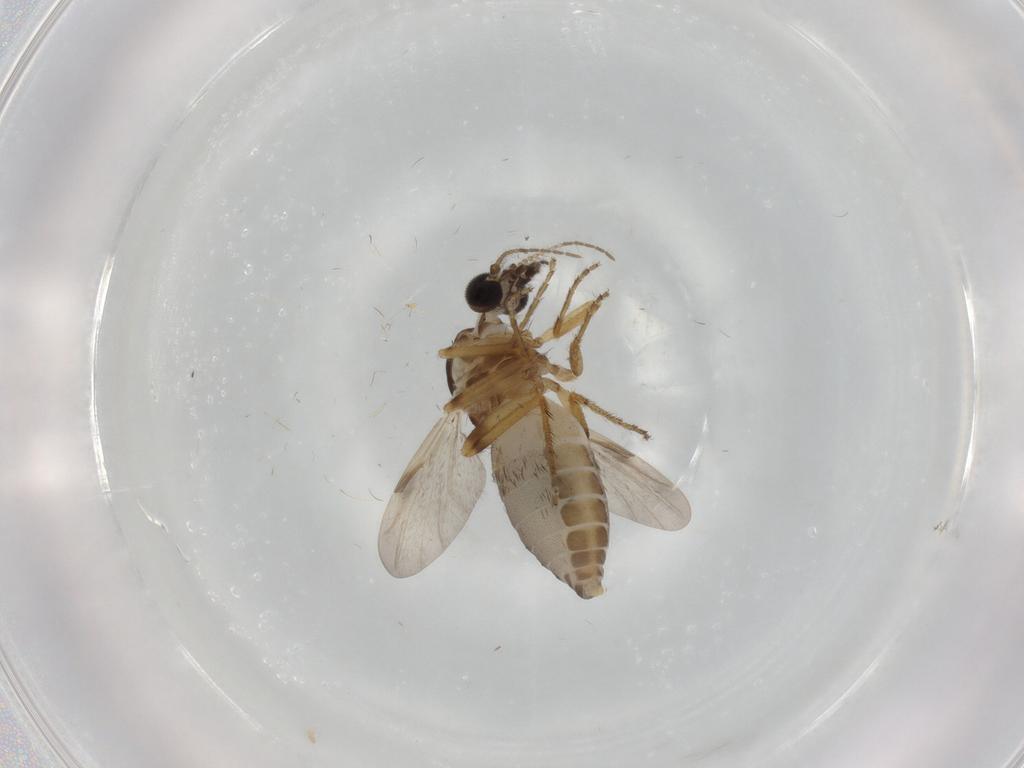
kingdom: Animalia
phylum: Arthropoda
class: Insecta
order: Diptera
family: Ceratopogonidae
